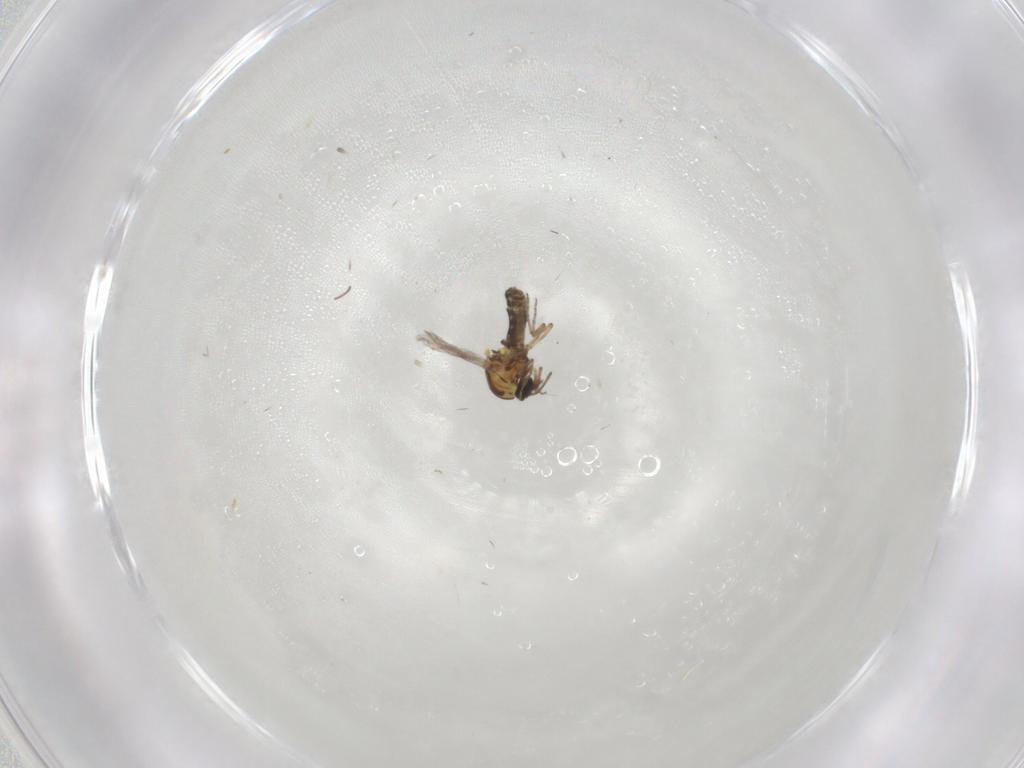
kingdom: Animalia
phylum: Arthropoda
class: Insecta
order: Diptera
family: Ceratopogonidae
